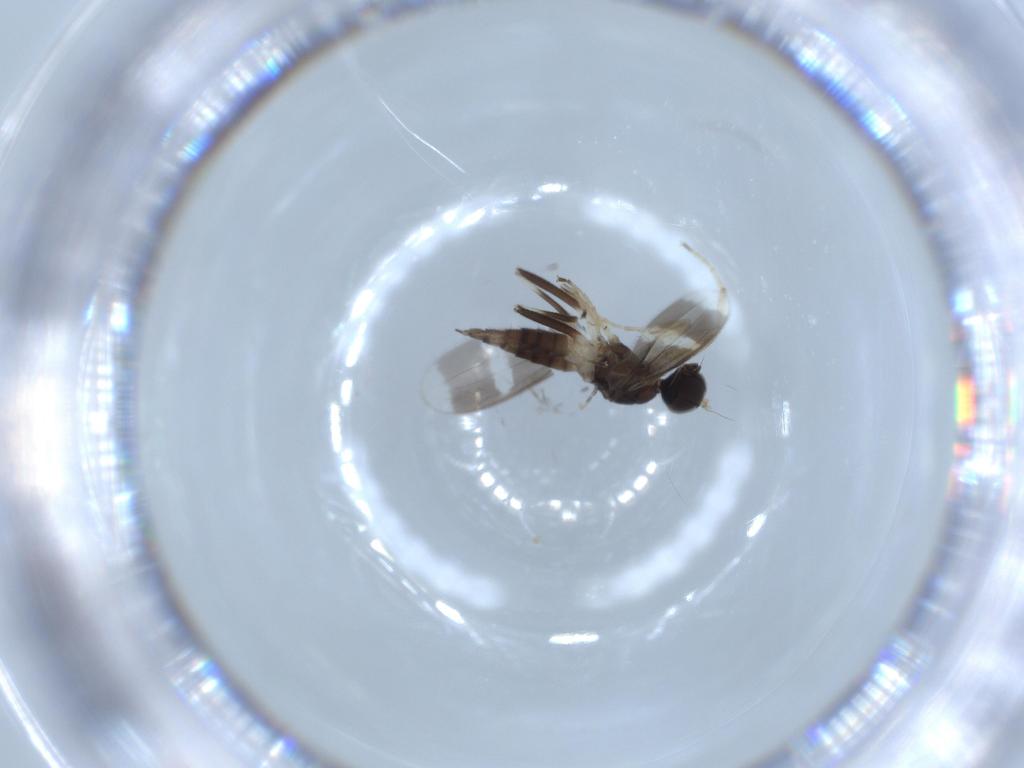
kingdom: Animalia
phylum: Arthropoda
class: Insecta
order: Diptera
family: Hybotidae
